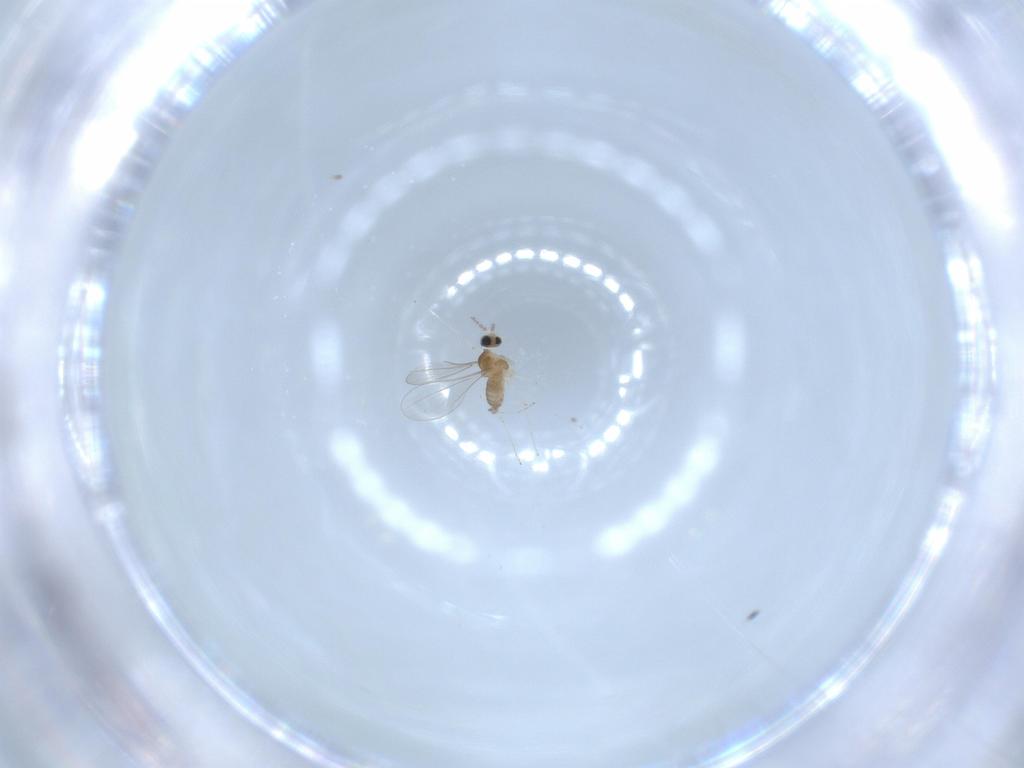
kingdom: Animalia
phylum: Arthropoda
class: Insecta
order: Diptera
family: Cecidomyiidae
